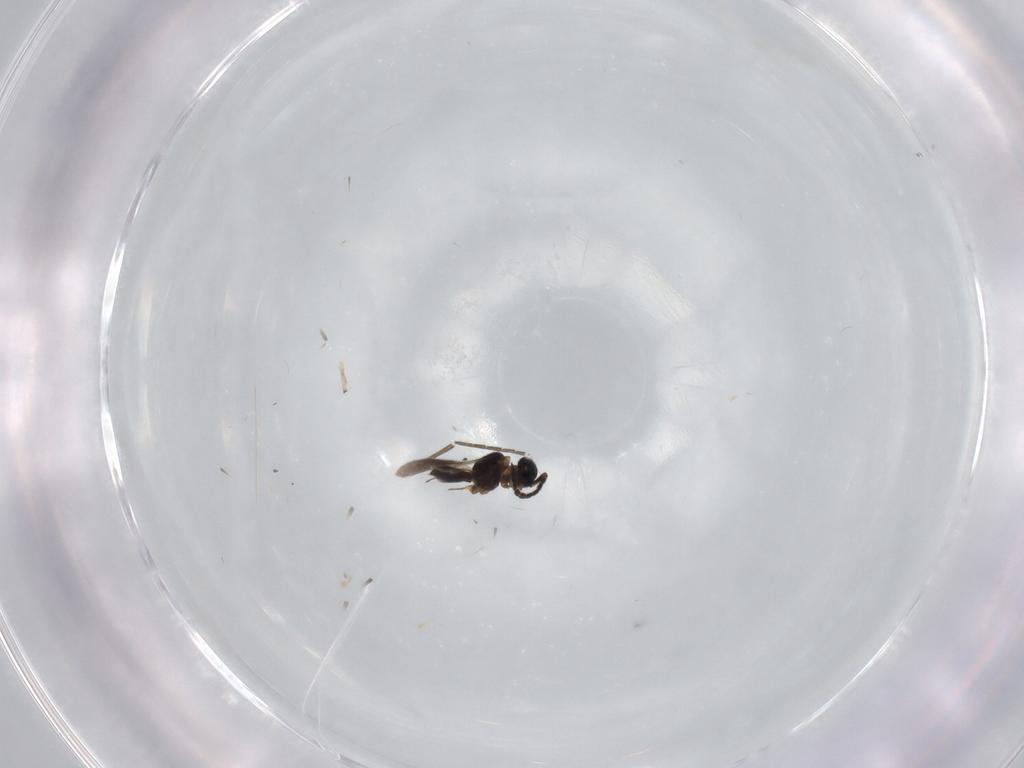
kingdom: Animalia
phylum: Arthropoda
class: Insecta
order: Hymenoptera
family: Scelionidae
